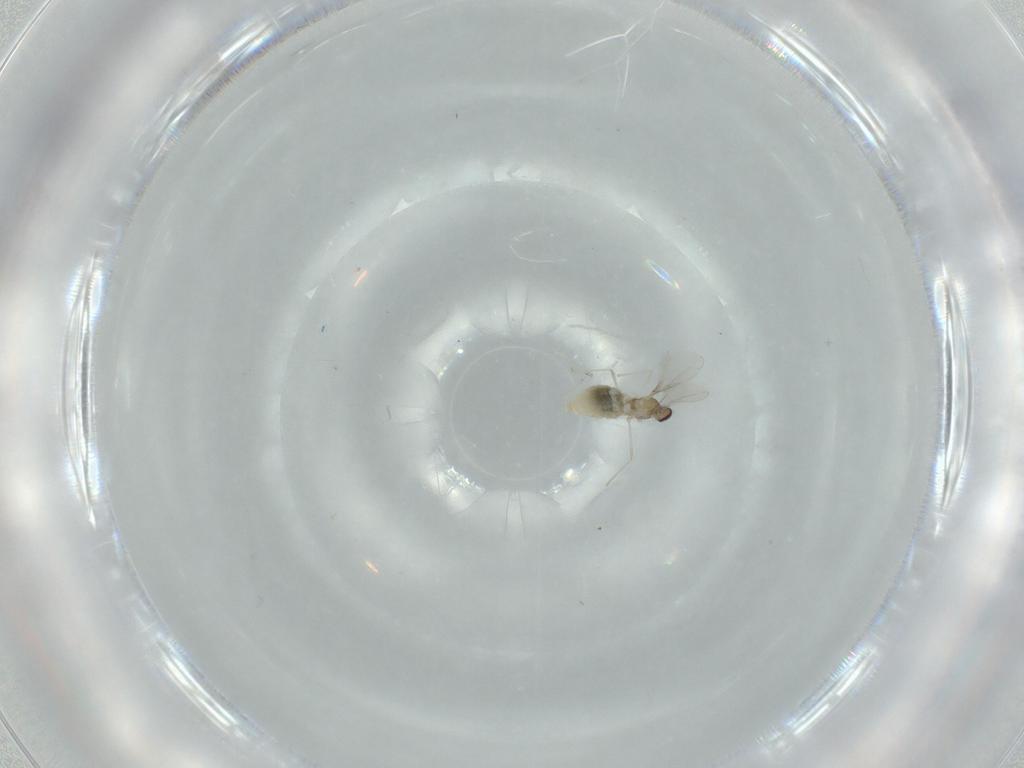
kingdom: Animalia
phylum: Arthropoda
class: Insecta
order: Diptera
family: Cecidomyiidae
